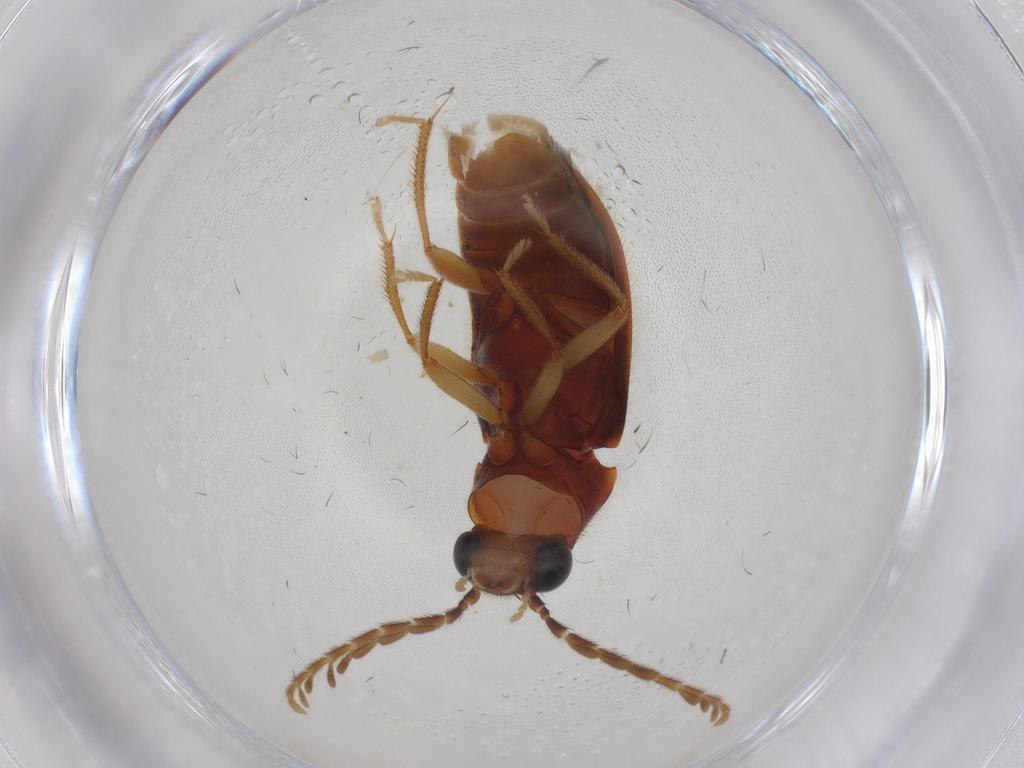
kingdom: Animalia
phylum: Arthropoda
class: Insecta
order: Coleoptera
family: Ptilodactylidae
